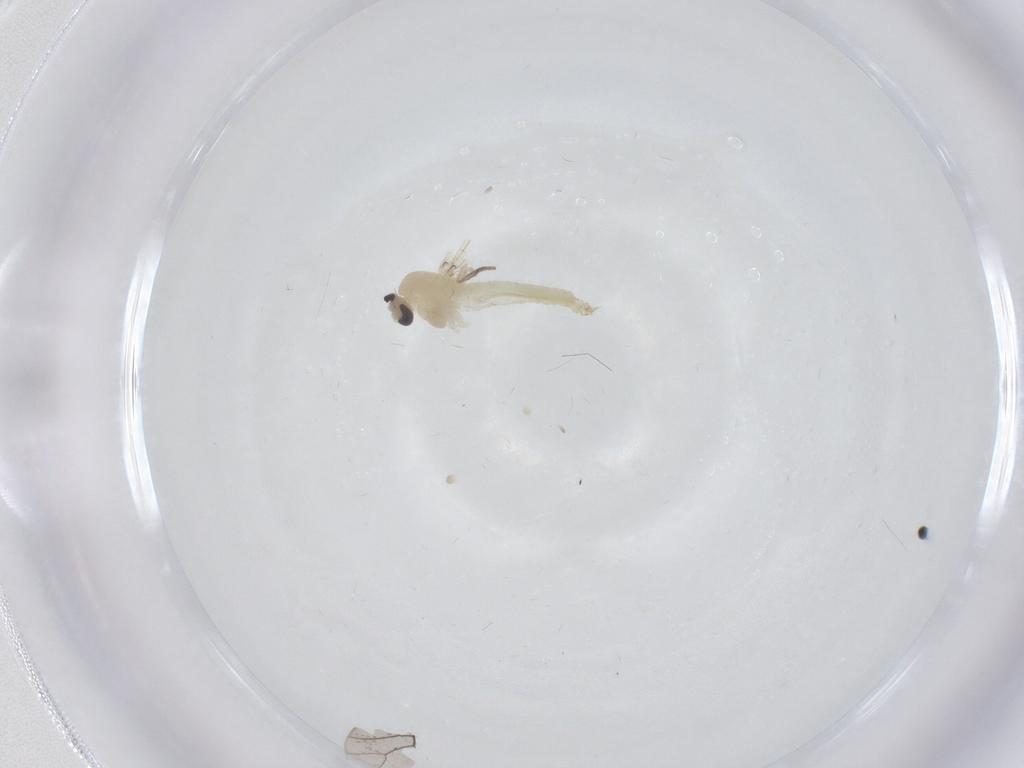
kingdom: Animalia
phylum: Arthropoda
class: Insecta
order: Diptera
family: Chironomidae
